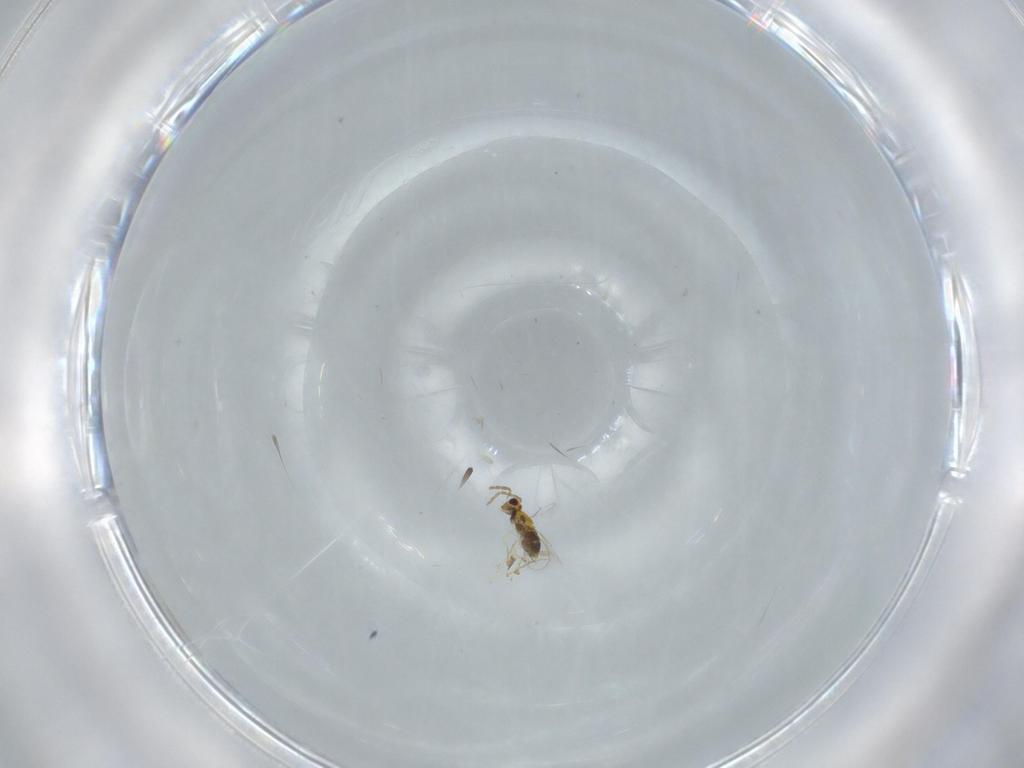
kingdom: Animalia
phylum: Arthropoda
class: Insecta
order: Hymenoptera
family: Aphelinidae
